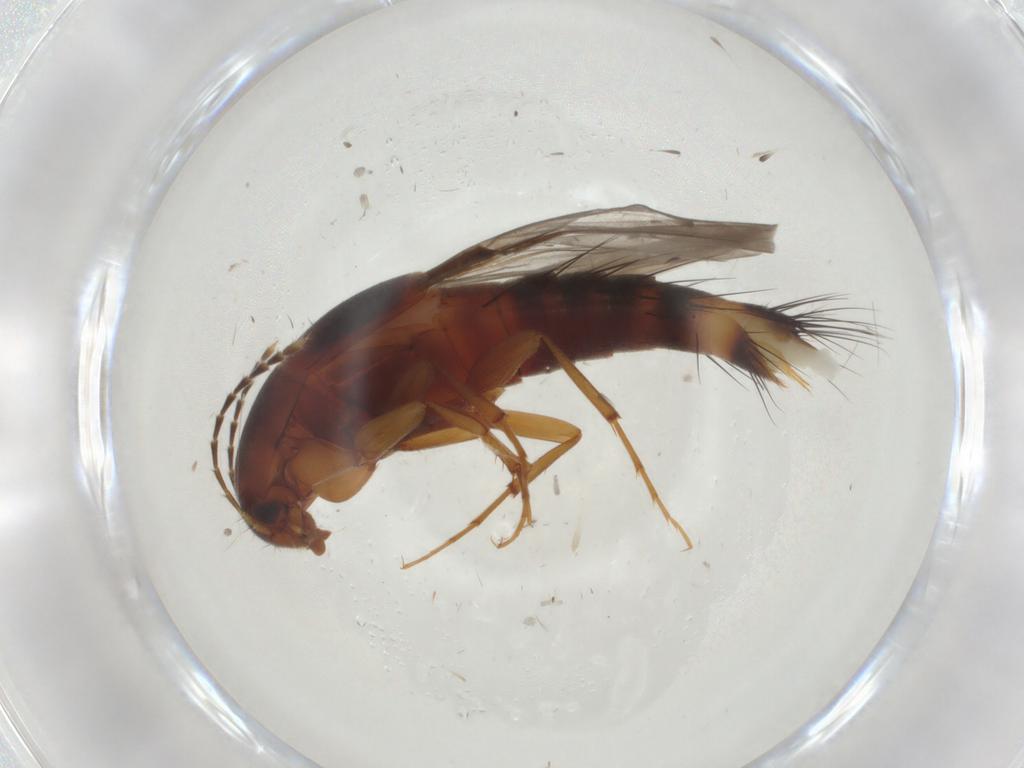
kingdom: Animalia
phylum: Arthropoda
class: Insecta
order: Coleoptera
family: Staphylinidae
